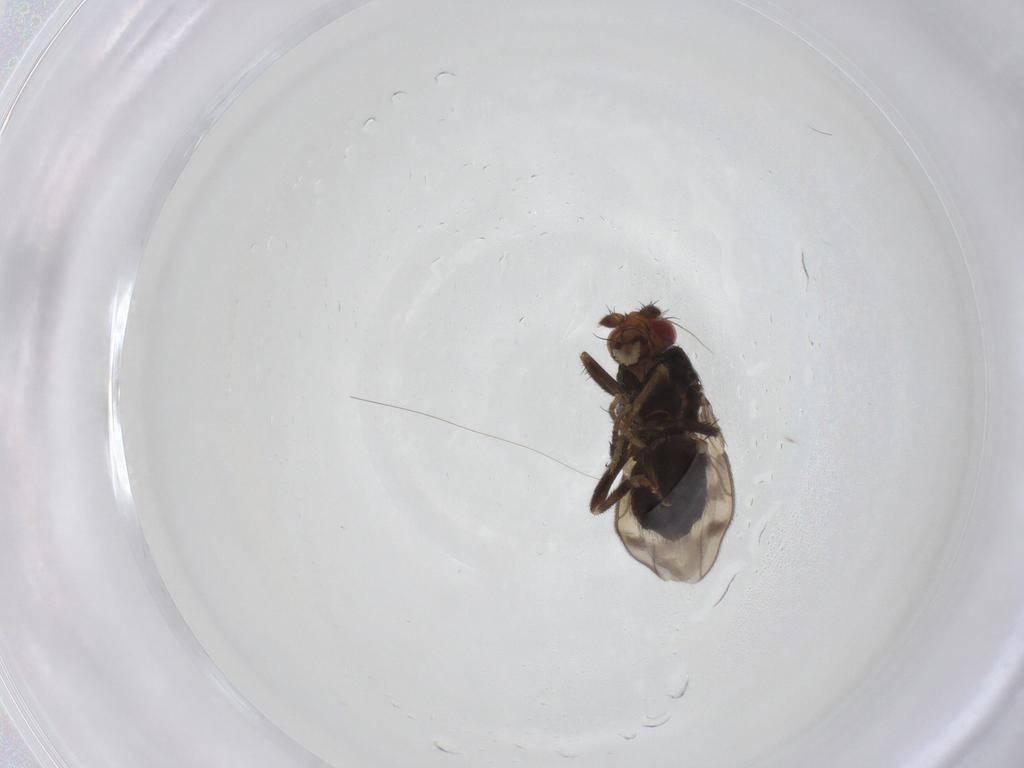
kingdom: Animalia
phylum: Arthropoda
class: Insecta
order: Diptera
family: Sphaeroceridae
